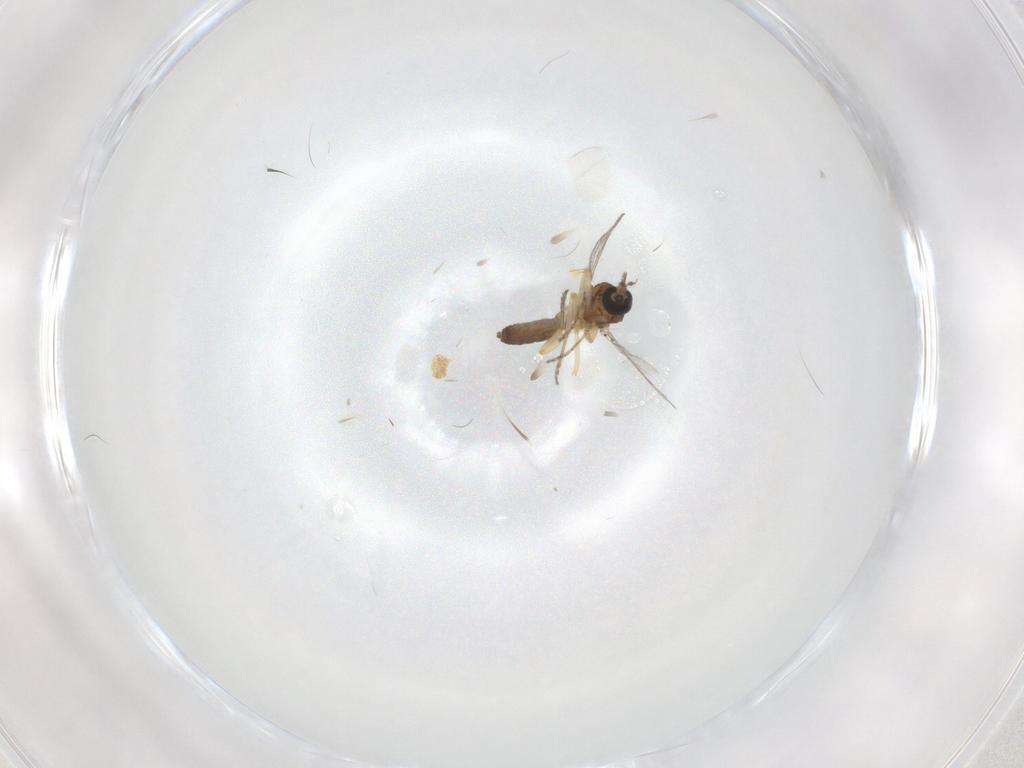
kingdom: Animalia
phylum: Arthropoda
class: Insecta
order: Diptera
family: Ceratopogonidae
